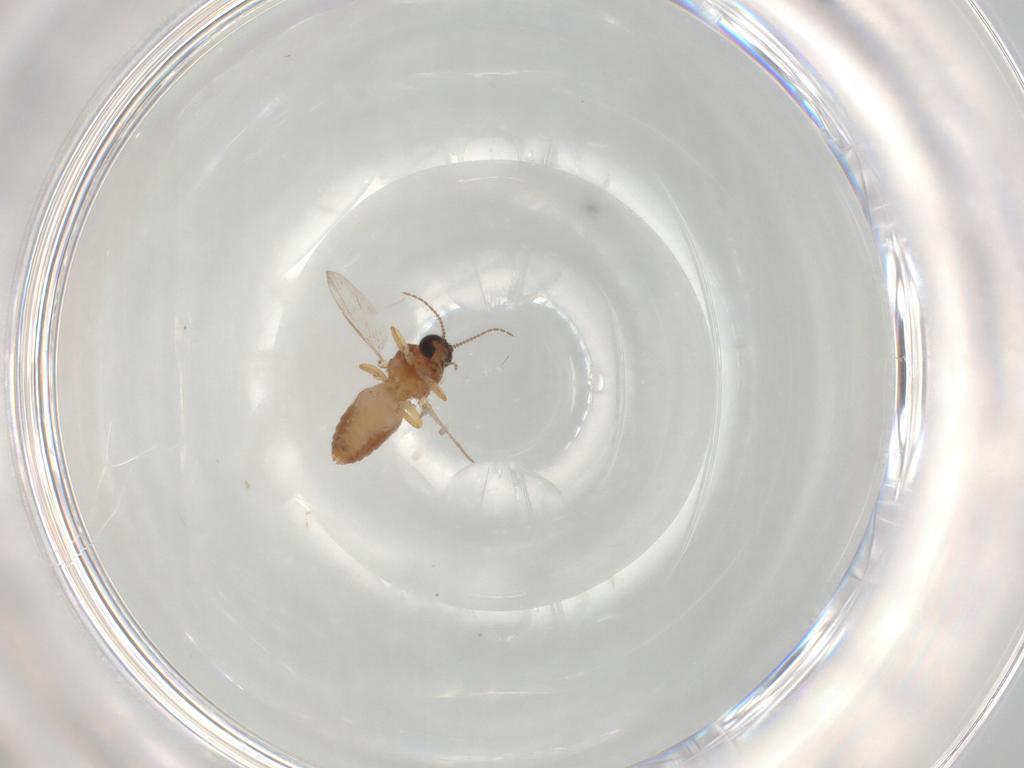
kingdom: Animalia
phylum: Arthropoda
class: Insecta
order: Diptera
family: Ceratopogonidae
